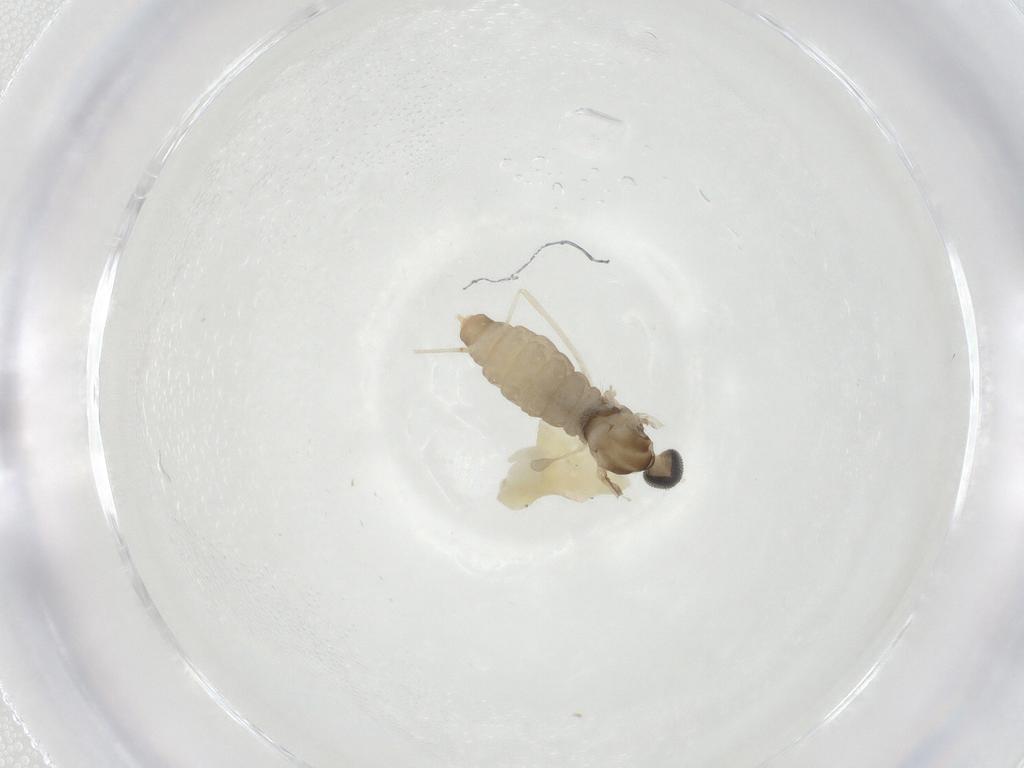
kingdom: Animalia
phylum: Arthropoda
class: Insecta
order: Diptera
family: Cecidomyiidae
